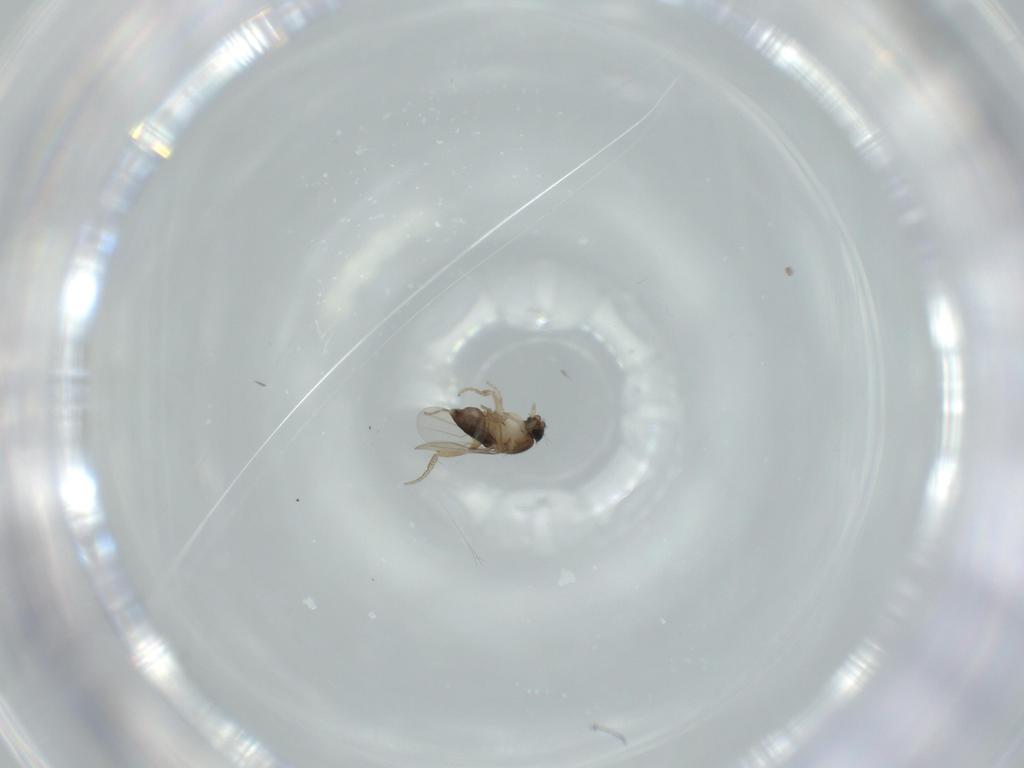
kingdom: Animalia
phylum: Arthropoda
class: Insecta
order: Diptera
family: Phoridae
